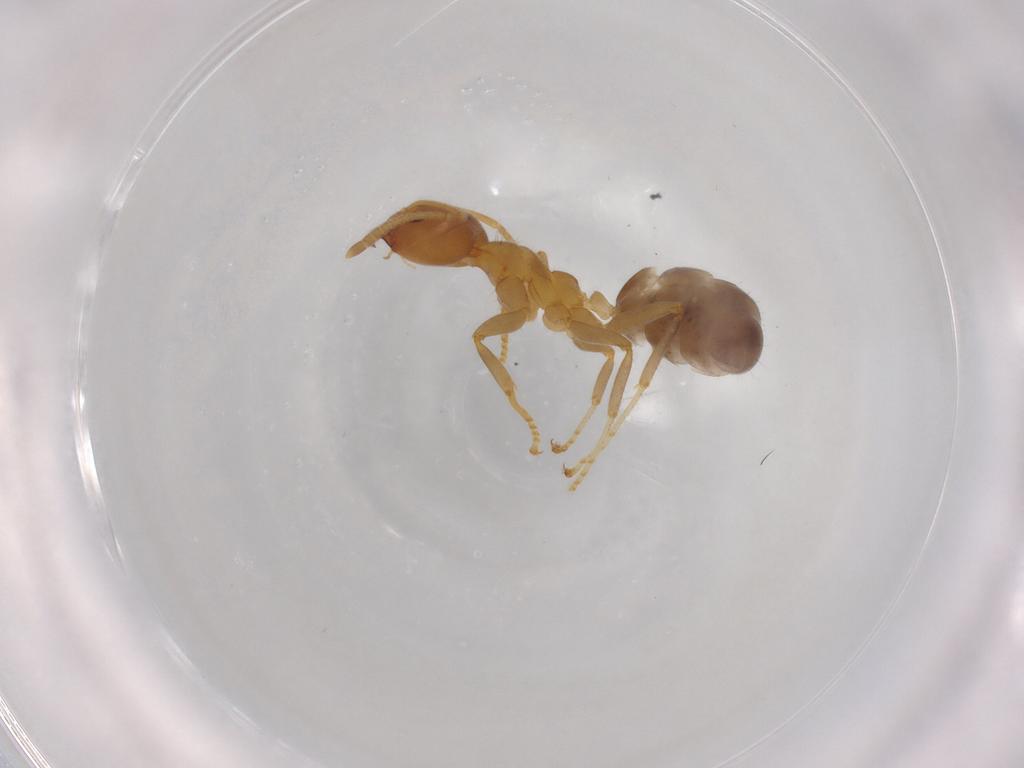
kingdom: Animalia
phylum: Arthropoda
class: Insecta
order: Hymenoptera
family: Formicidae
